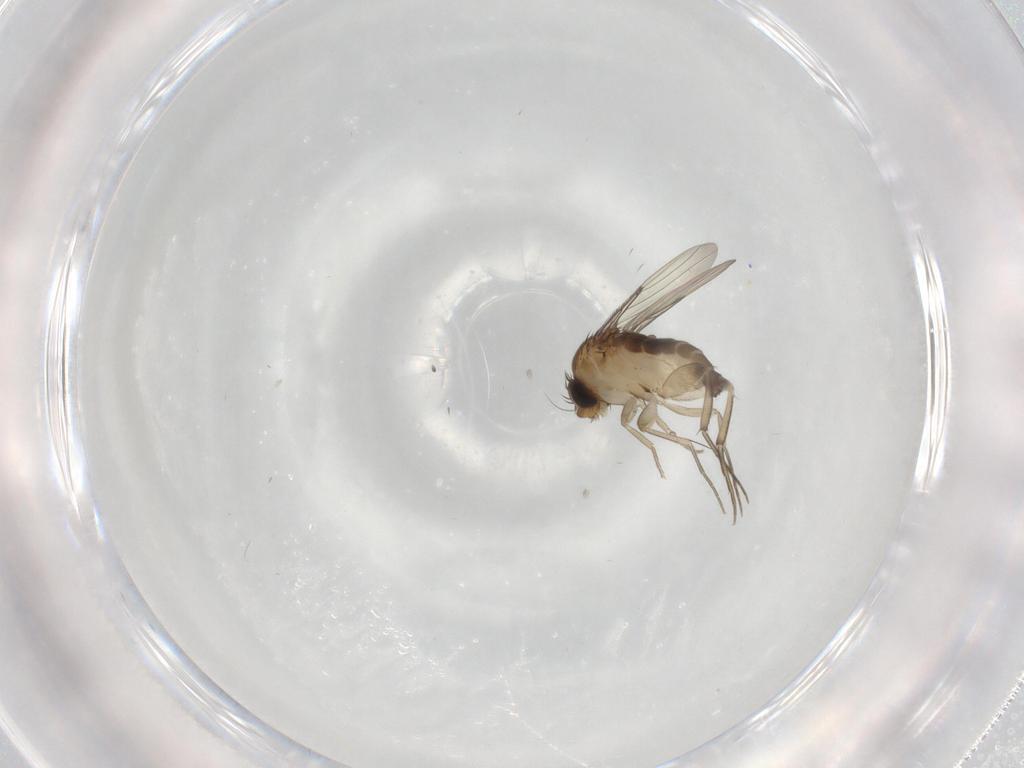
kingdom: Animalia
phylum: Arthropoda
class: Insecta
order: Diptera
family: Phoridae
